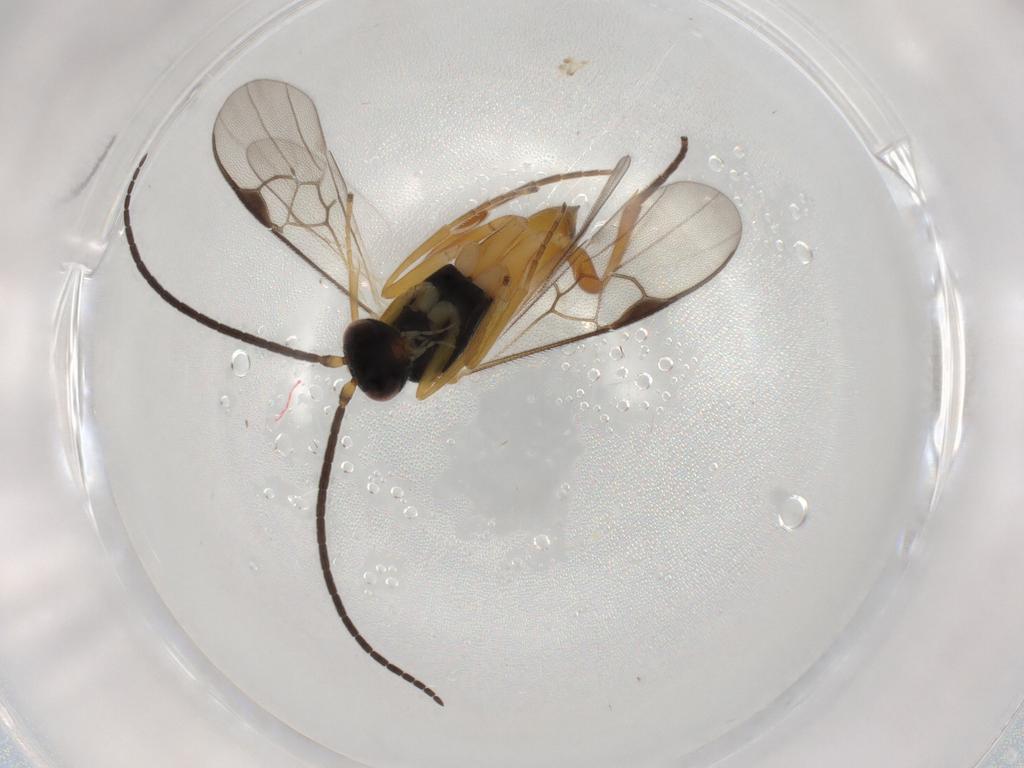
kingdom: Animalia
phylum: Arthropoda
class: Insecta
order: Hymenoptera
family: Braconidae
